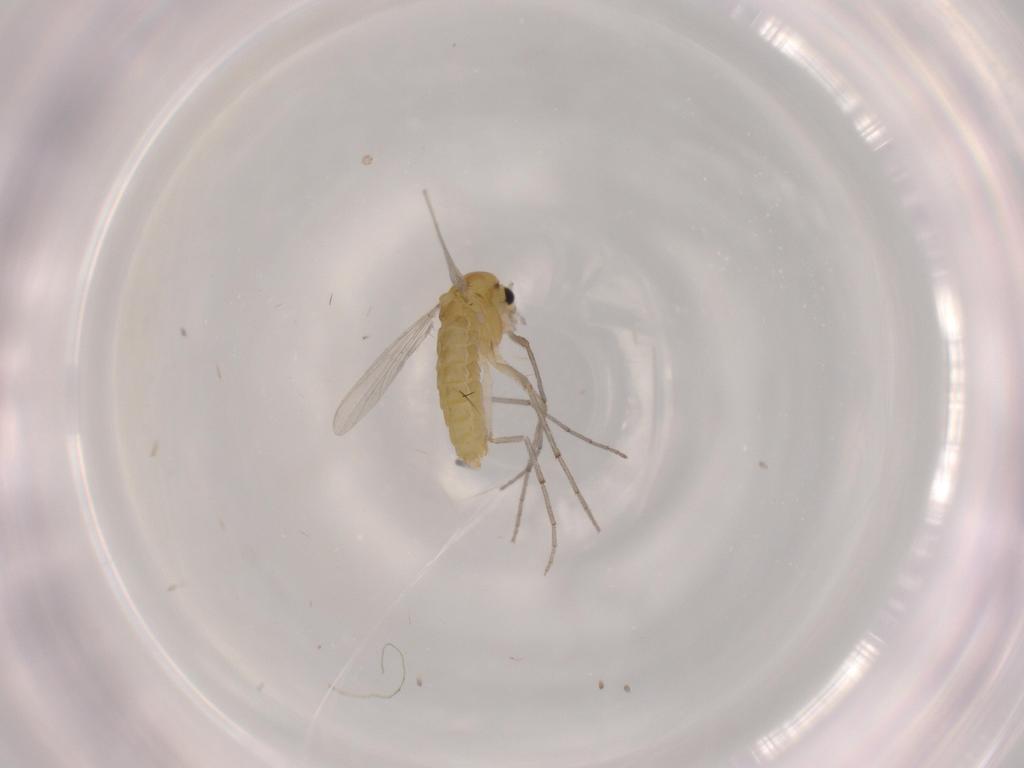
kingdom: Animalia
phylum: Arthropoda
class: Insecta
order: Diptera
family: Chironomidae
